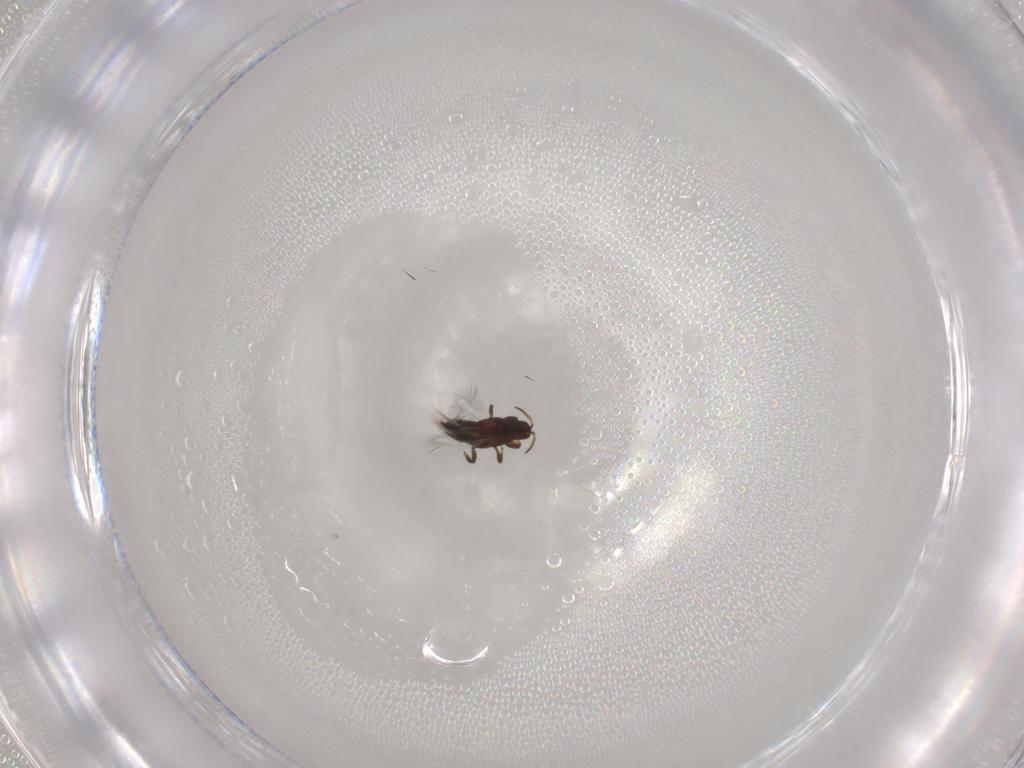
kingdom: Animalia
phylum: Arthropoda
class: Insecta
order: Thysanoptera
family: Phlaeothripidae
